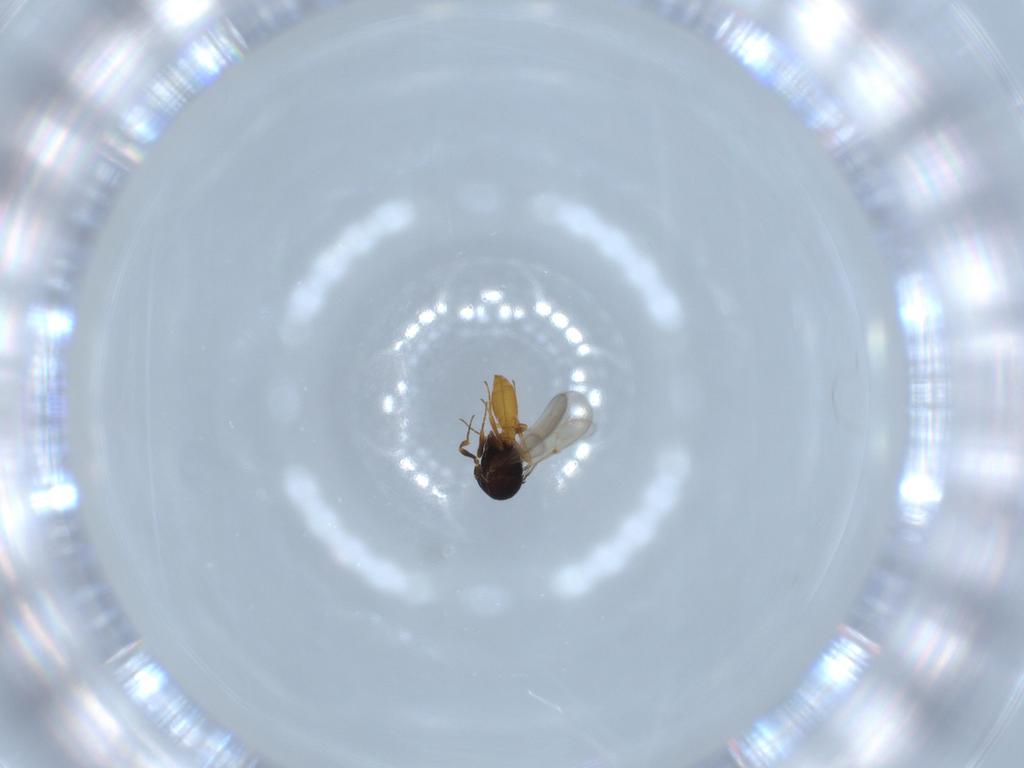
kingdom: Animalia
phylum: Arthropoda
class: Insecta
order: Hymenoptera
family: Scelionidae
